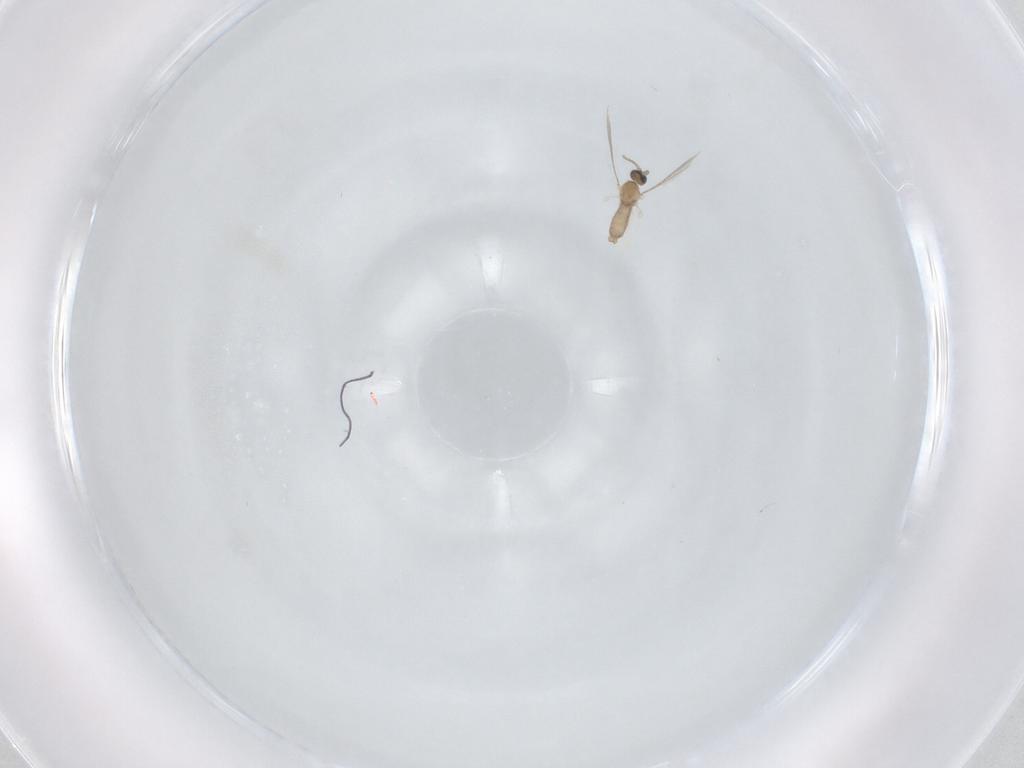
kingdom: Animalia
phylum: Arthropoda
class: Insecta
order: Diptera
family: Cecidomyiidae
